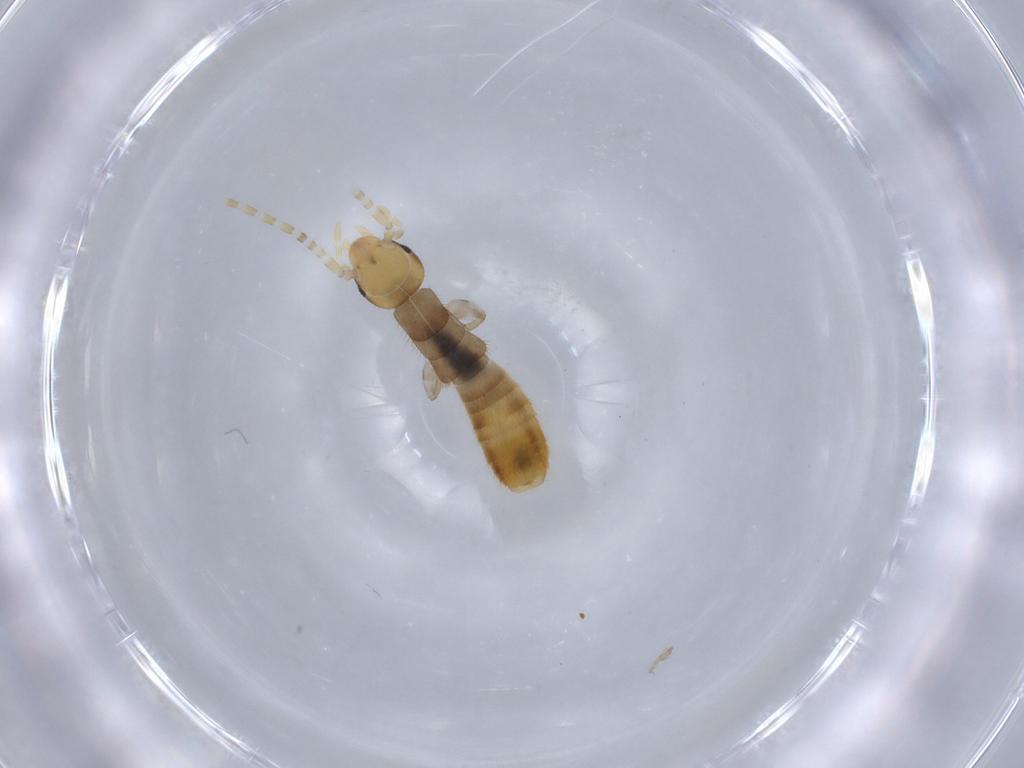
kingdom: Animalia
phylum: Arthropoda
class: Insecta
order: Dermaptera
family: Forficulidae
